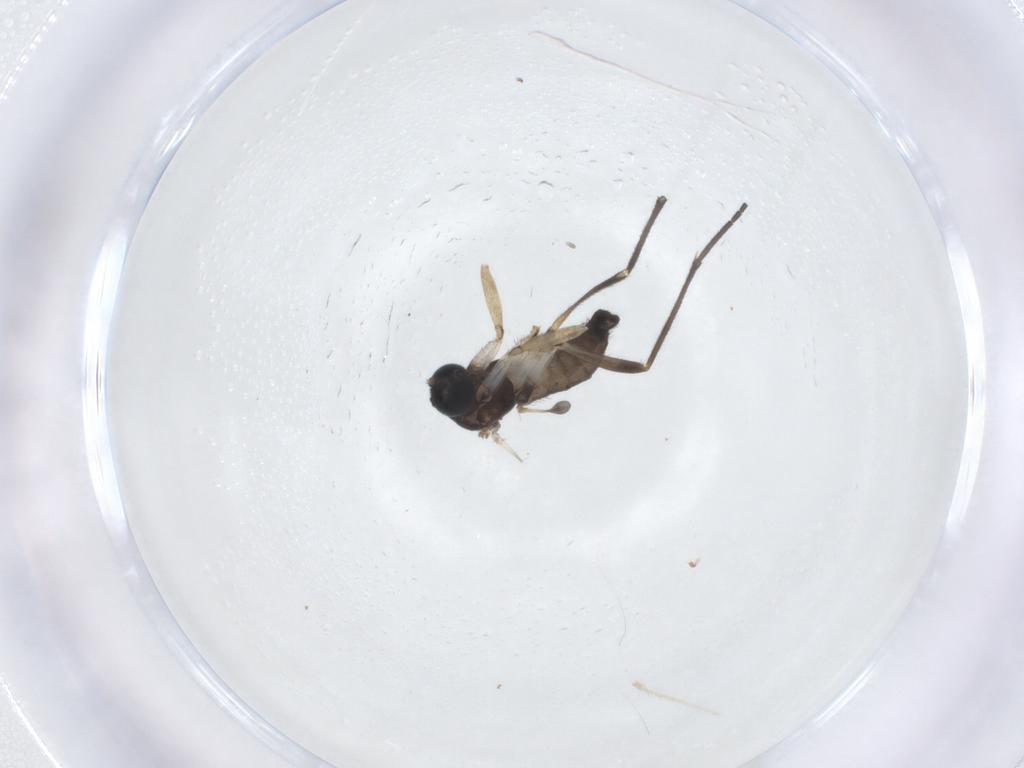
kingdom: Animalia
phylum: Arthropoda
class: Insecta
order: Diptera
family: Sciaridae
